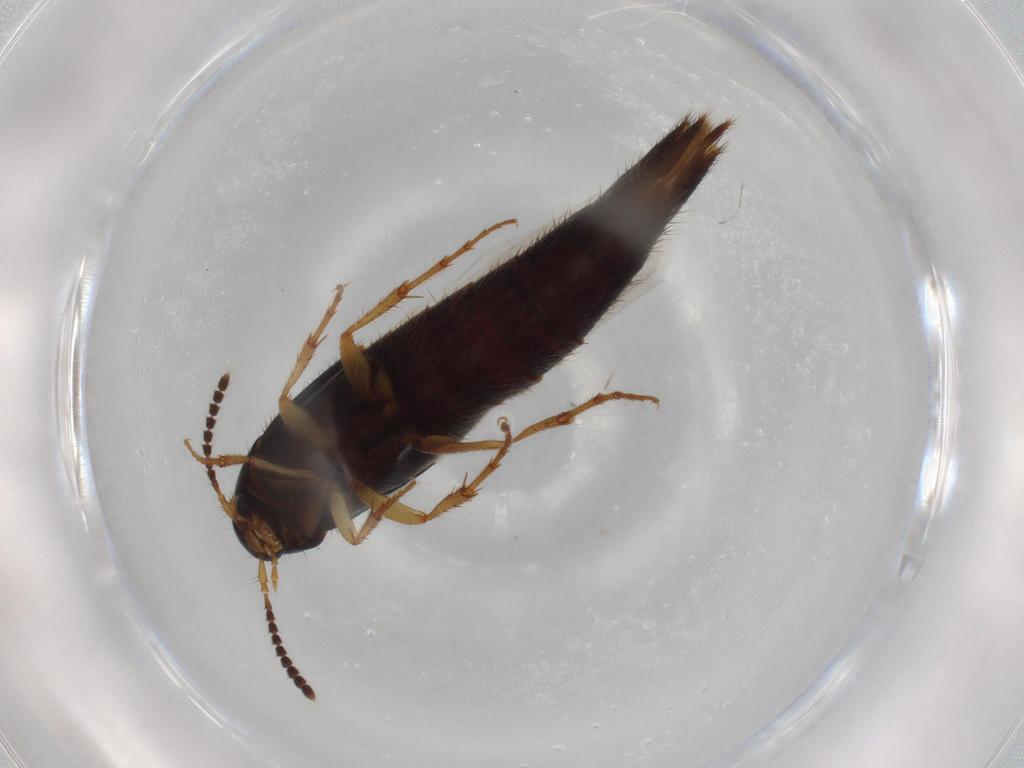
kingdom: Animalia
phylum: Arthropoda
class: Insecta
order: Coleoptera
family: Staphylinidae
